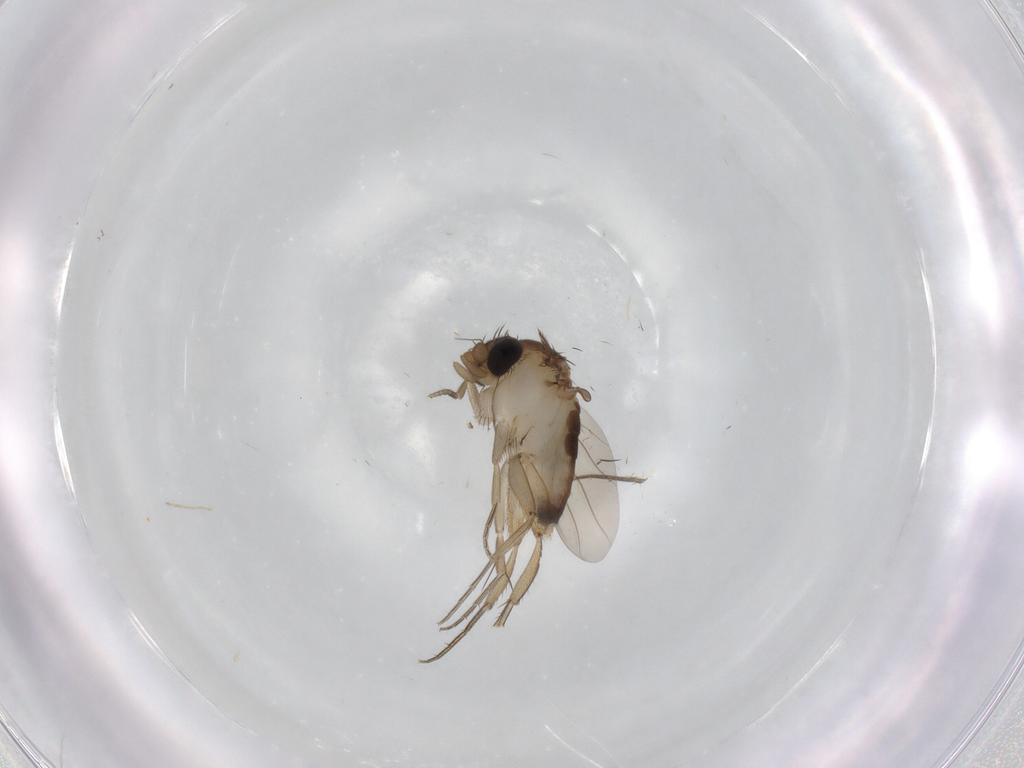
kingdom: Animalia
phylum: Arthropoda
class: Insecta
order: Diptera
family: Phoridae
